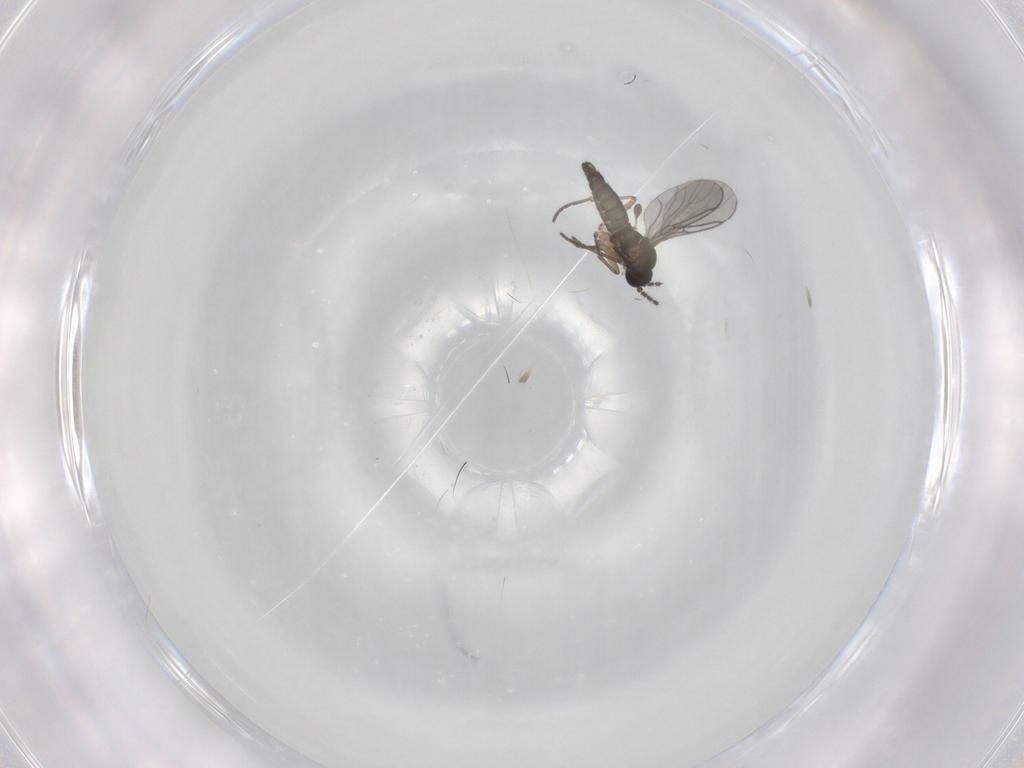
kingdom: Animalia
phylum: Arthropoda
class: Insecta
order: Diptera
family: Sciaridae
